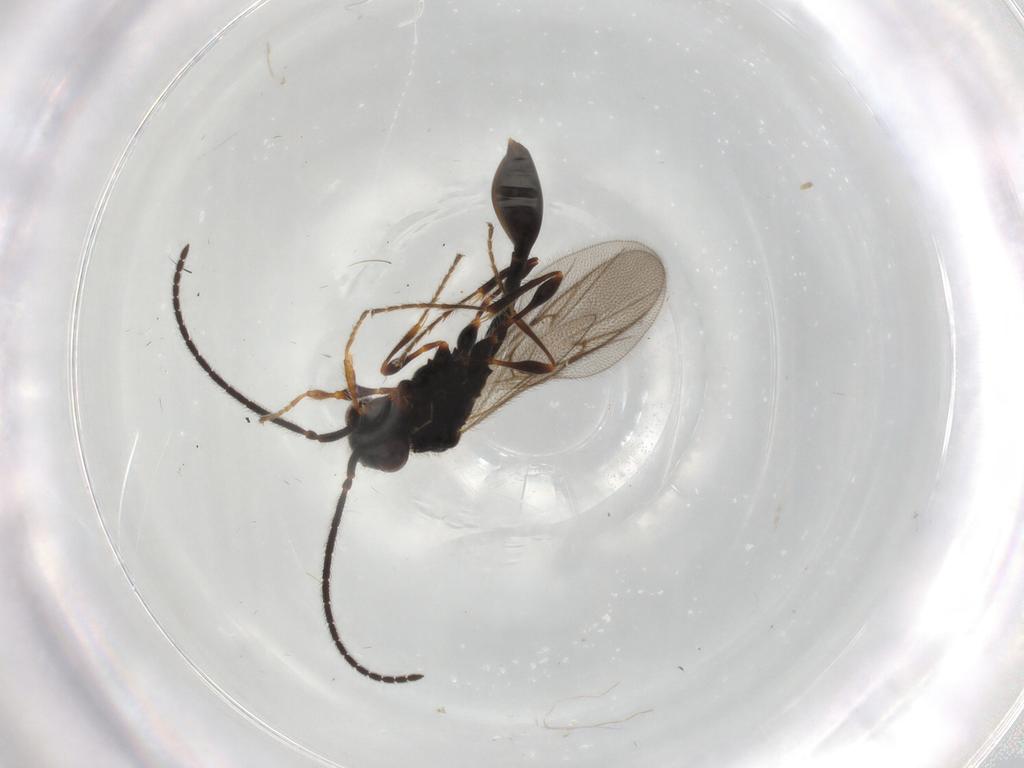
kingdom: Animalia
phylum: Arthropoda
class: Insecta
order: Hymenoptera
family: Diapriidae
